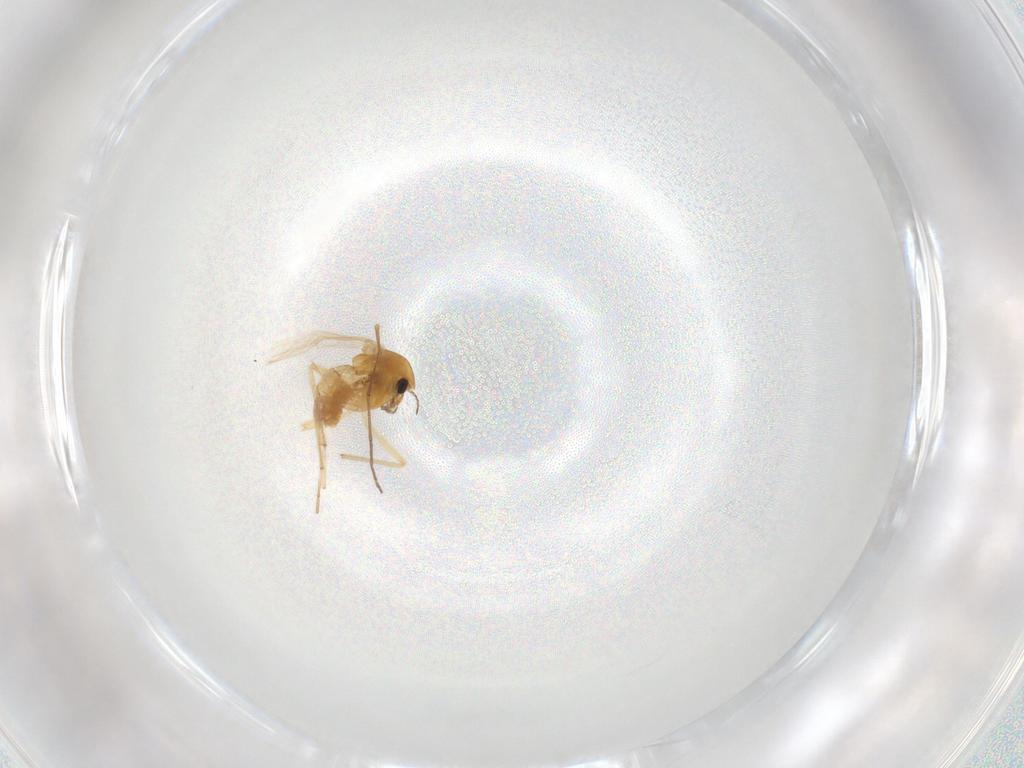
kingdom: Animalia
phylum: Arthropoda
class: Insecta
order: Diptera
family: Chironomidae
